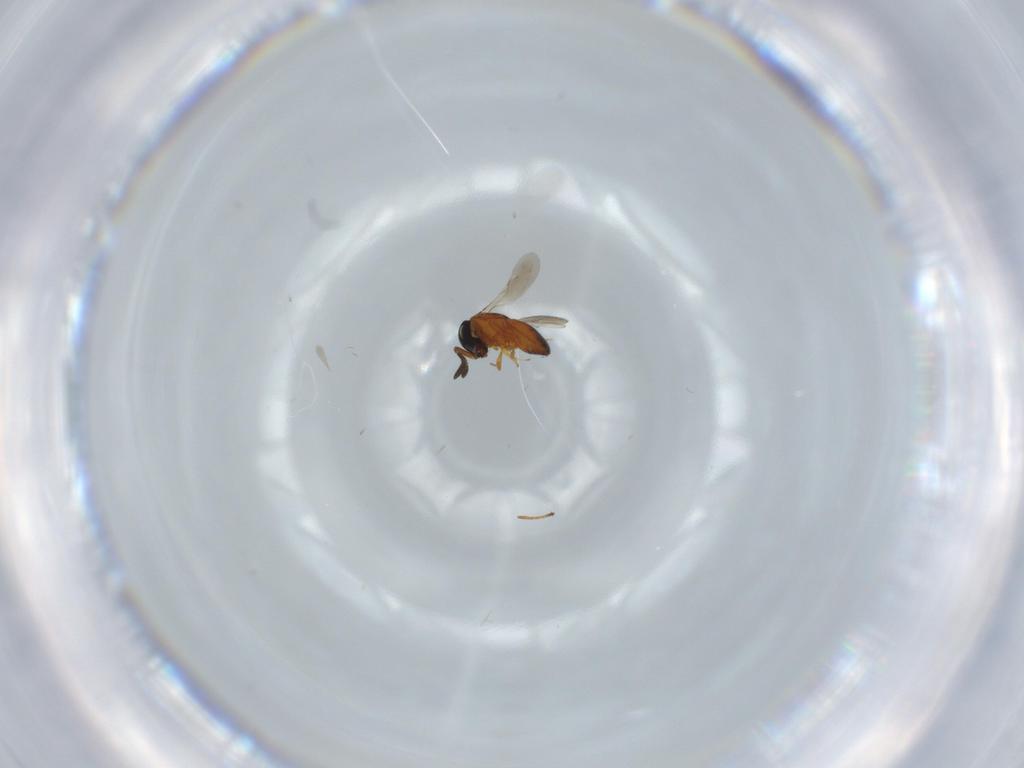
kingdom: Animalia
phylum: Arthropoda
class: Insecta
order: Hymenoptera
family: Scelionidae
